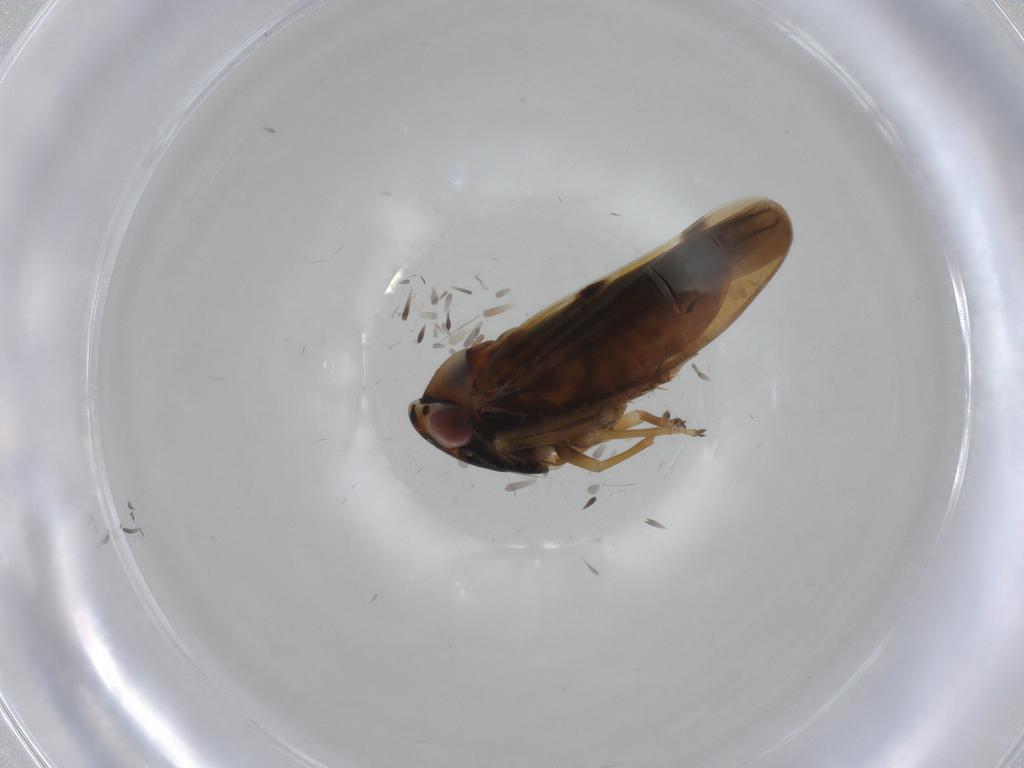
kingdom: Animalia
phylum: Arthropoda
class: Insecta
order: Hemiptera
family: Cicadellidae
